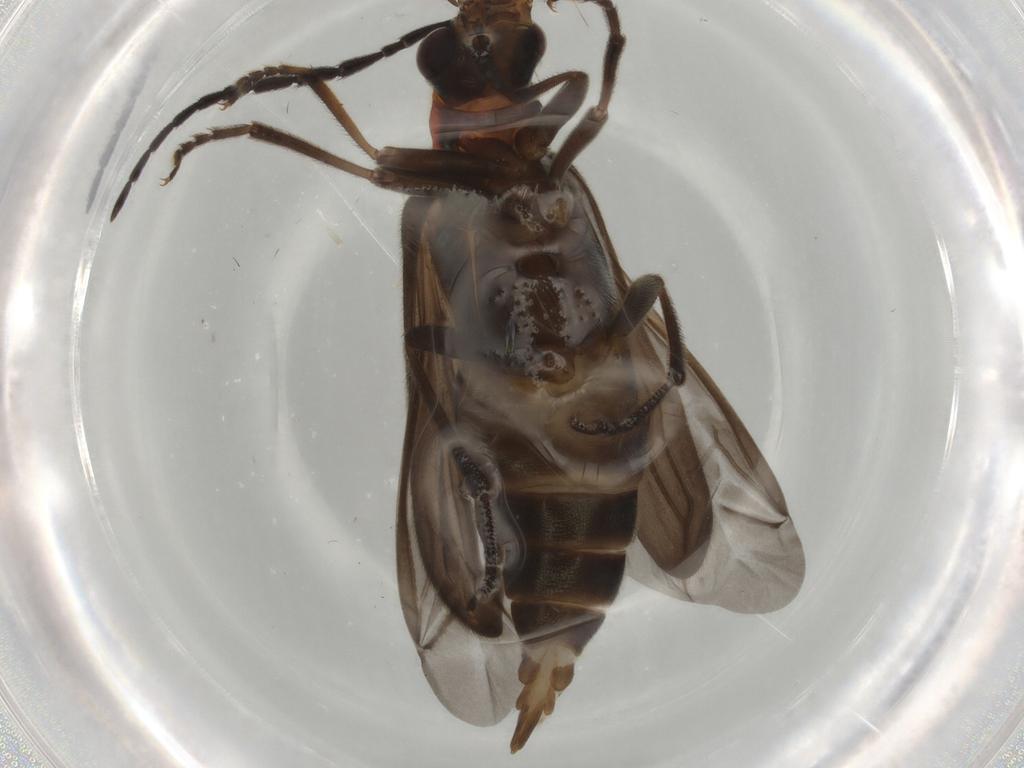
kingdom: Animalia
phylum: Arthropoda
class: Insecta
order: Coleoptera
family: Oedemeridae
